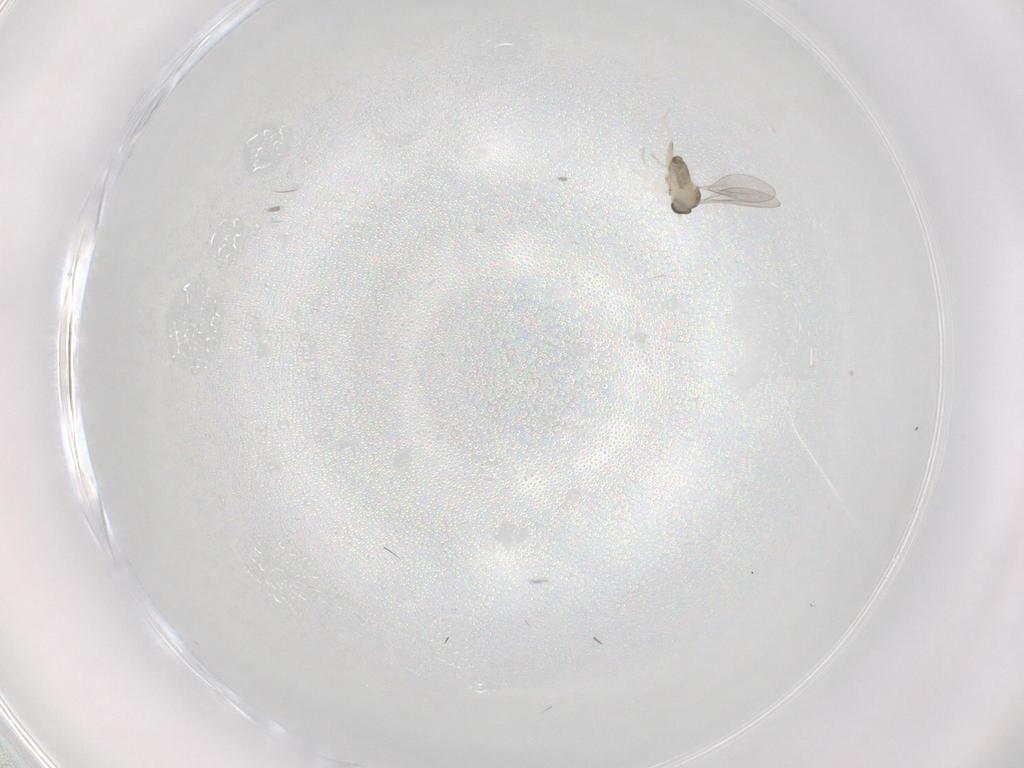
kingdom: Animalia
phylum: Arthropoda
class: Insecta
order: Diptera
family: Cecidomyiidae
